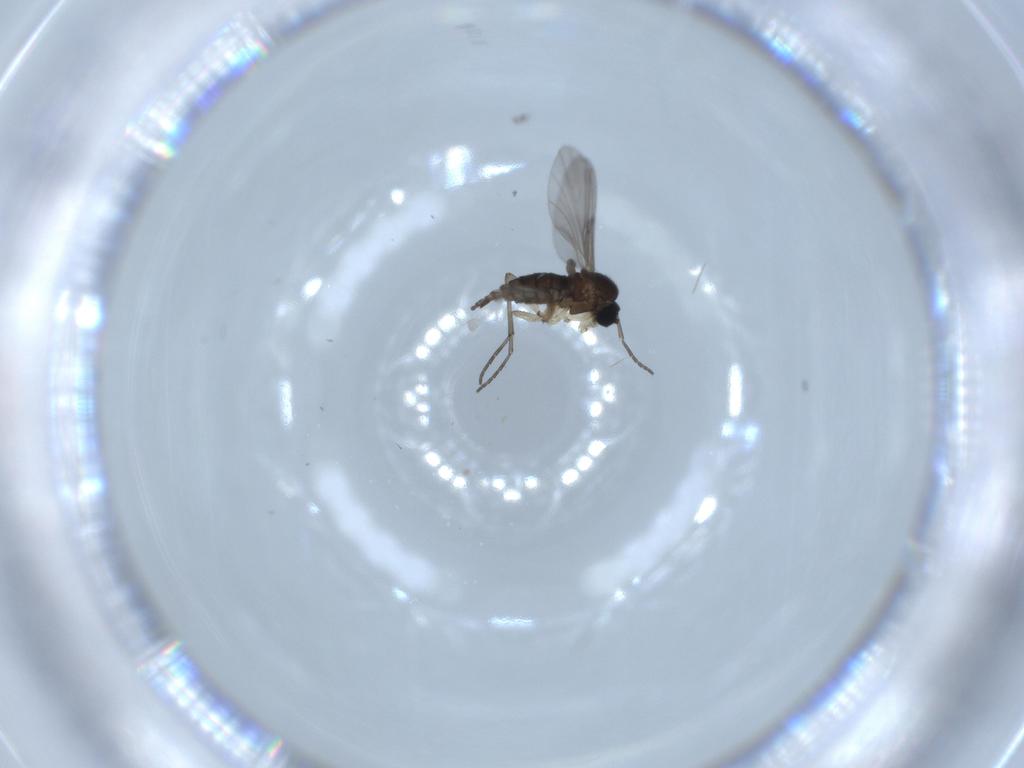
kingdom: Animalia
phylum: Arthropoda
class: Insecta
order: Diptera
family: Sciaridae
